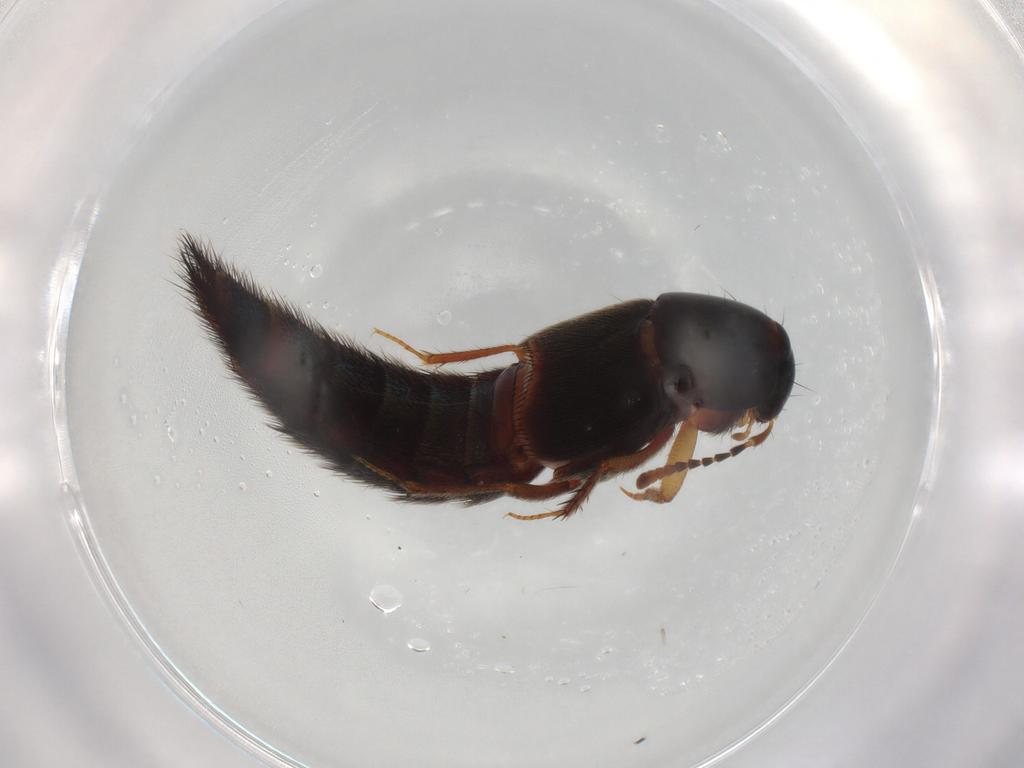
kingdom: Animalia
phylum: Arthropoda
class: Insecta
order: Coleoptera
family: Staphylinidae
